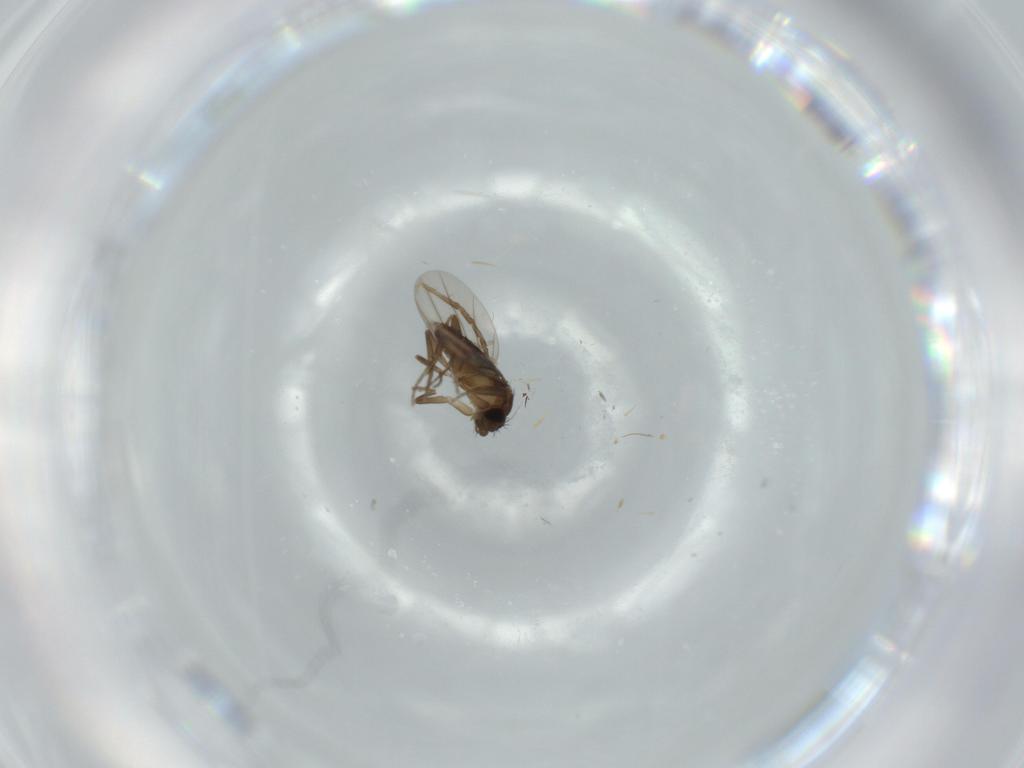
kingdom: Animalia
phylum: Arthropoda
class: Insecta
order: Diptera
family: Phoridae
